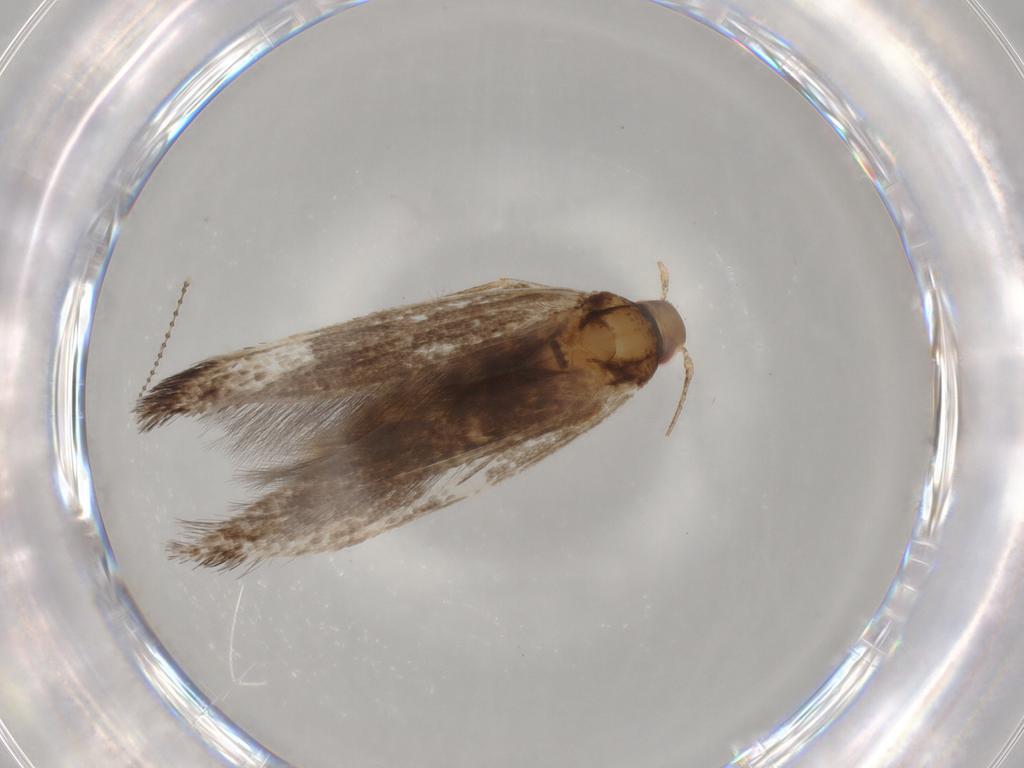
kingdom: Animalia
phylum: Arthropoda
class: Insecta
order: Lepidoptera
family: Cosmopterigidae
